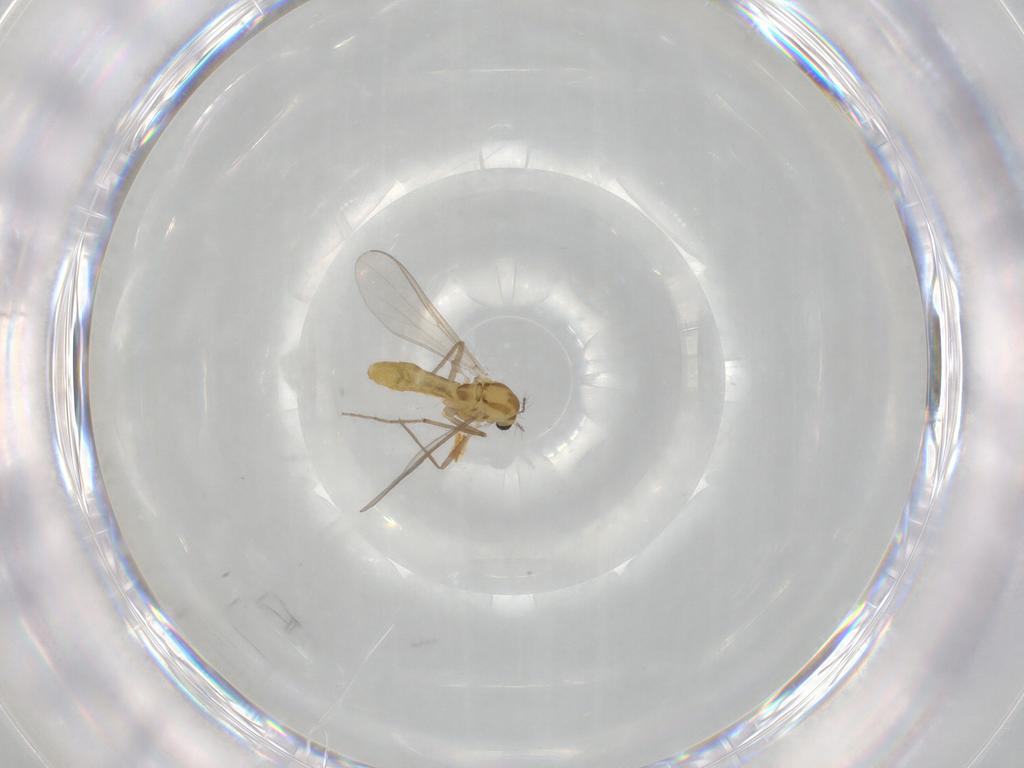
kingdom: Animalia
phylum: Arthropoda
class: Insecta
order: Diptera
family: Chironomidae
